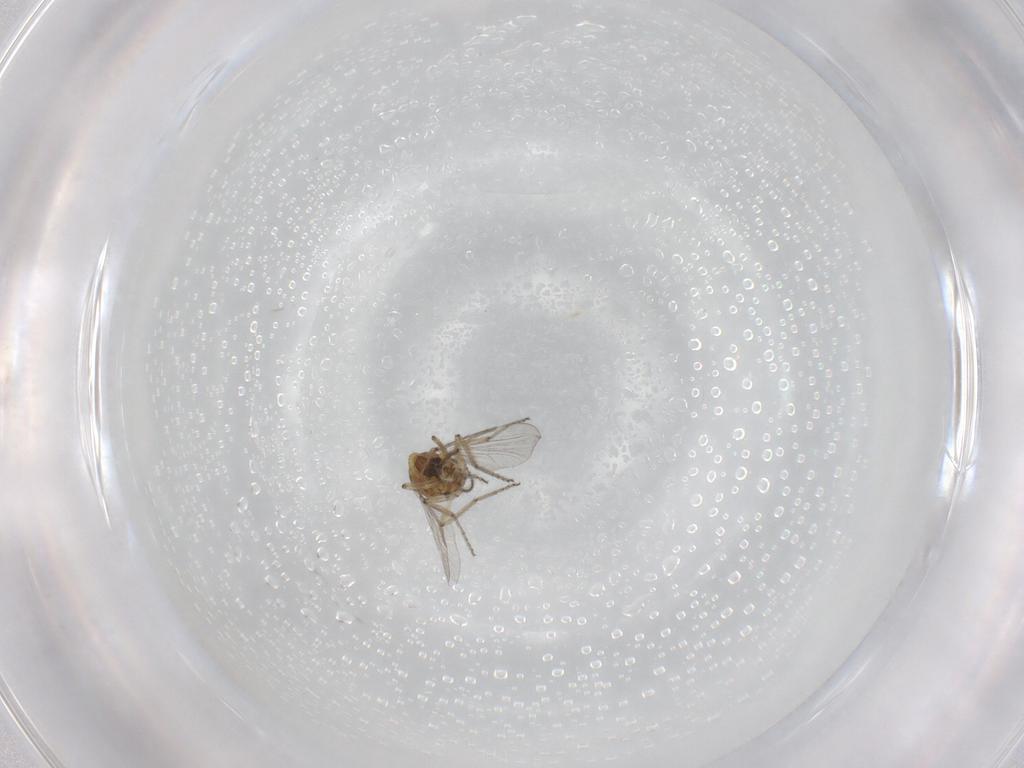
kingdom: Animalia
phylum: Arthropoda
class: Insecta
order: Diptera
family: Ceratopogonidae
